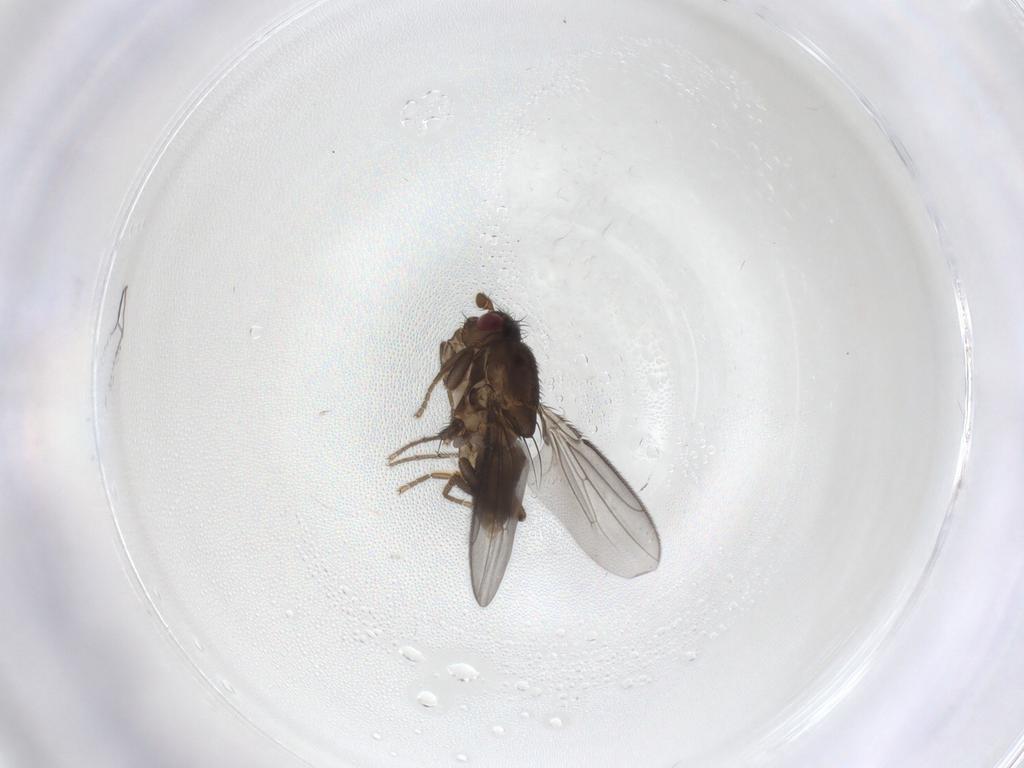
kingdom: Animalia
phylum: Arthropoda
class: Insecta
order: Diptera
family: Sphaeroceridae
